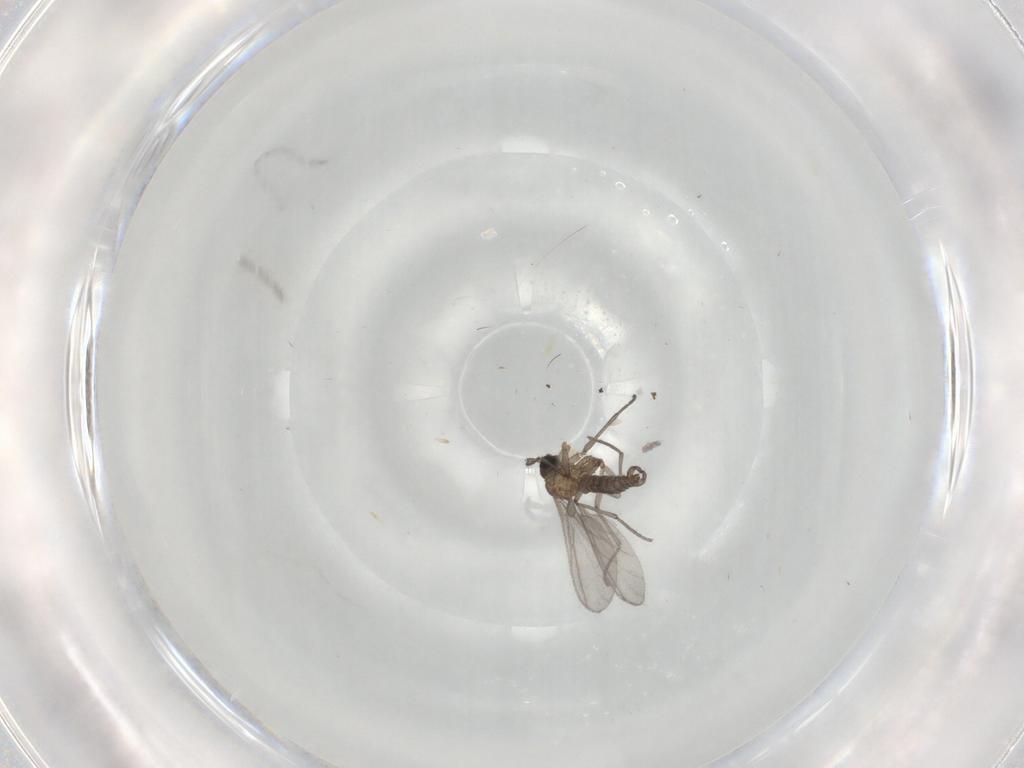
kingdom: Animalia
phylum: Arthropoda
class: Insecta
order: Diptera
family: Sciaridae
